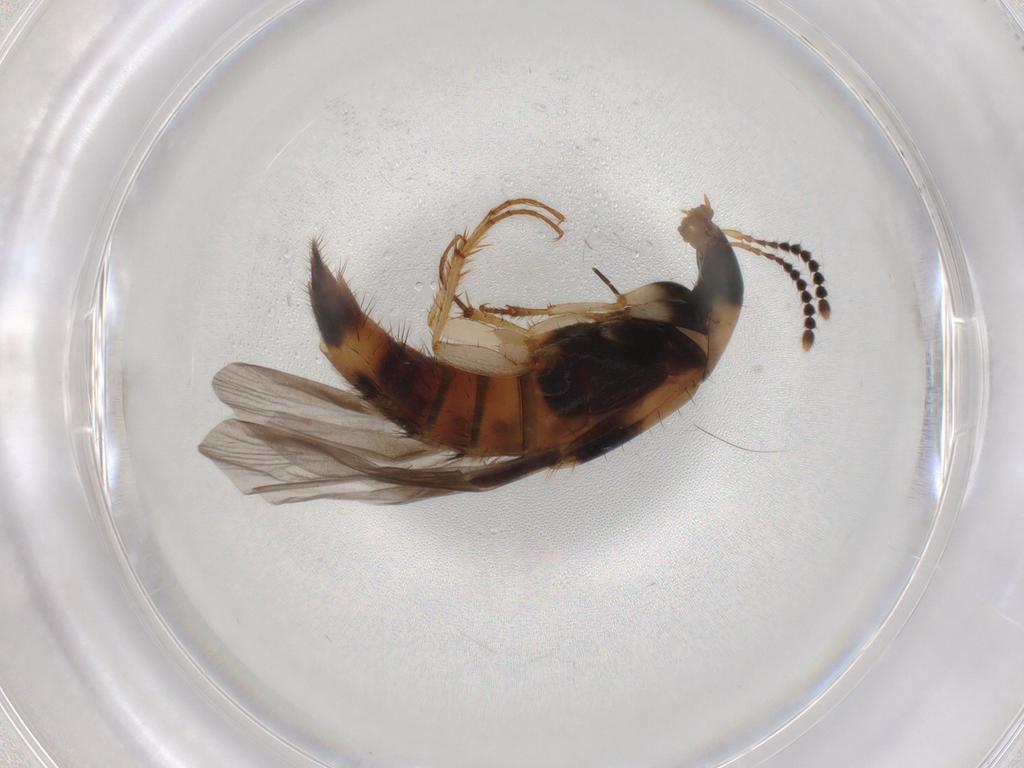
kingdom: Animalia
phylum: Arthropoda
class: Insecta
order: Coleoptera
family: Staphylinidae
